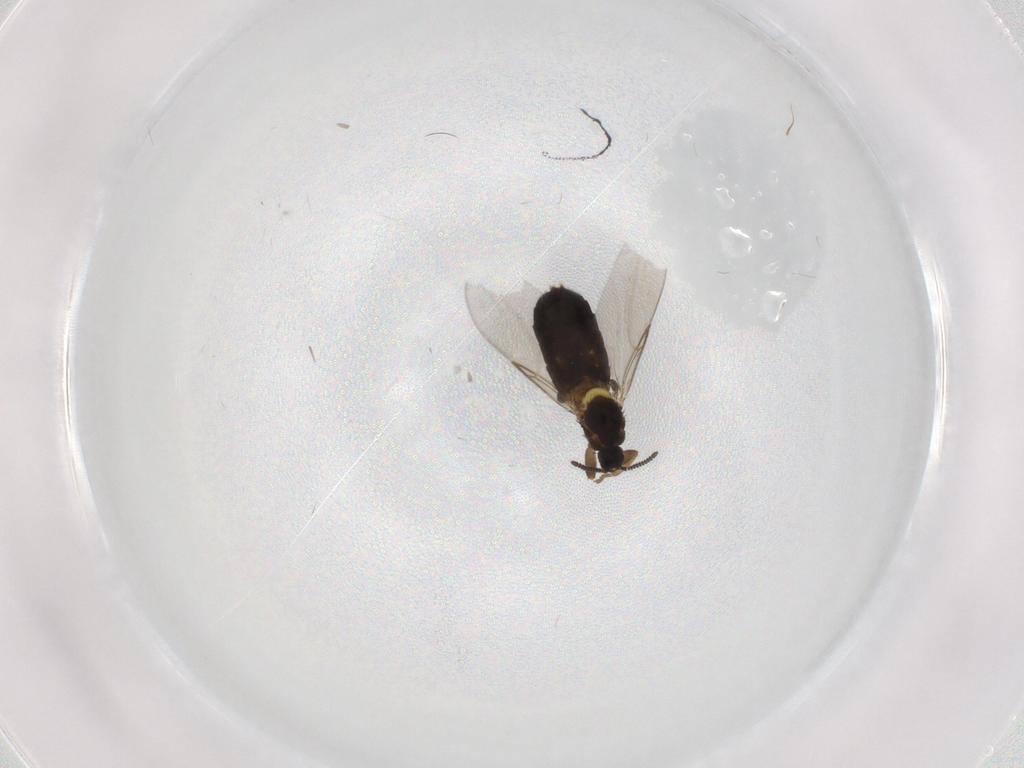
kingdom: Animalia
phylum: Arthropoda
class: Insecta
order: Diptera
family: Scatopsidae
